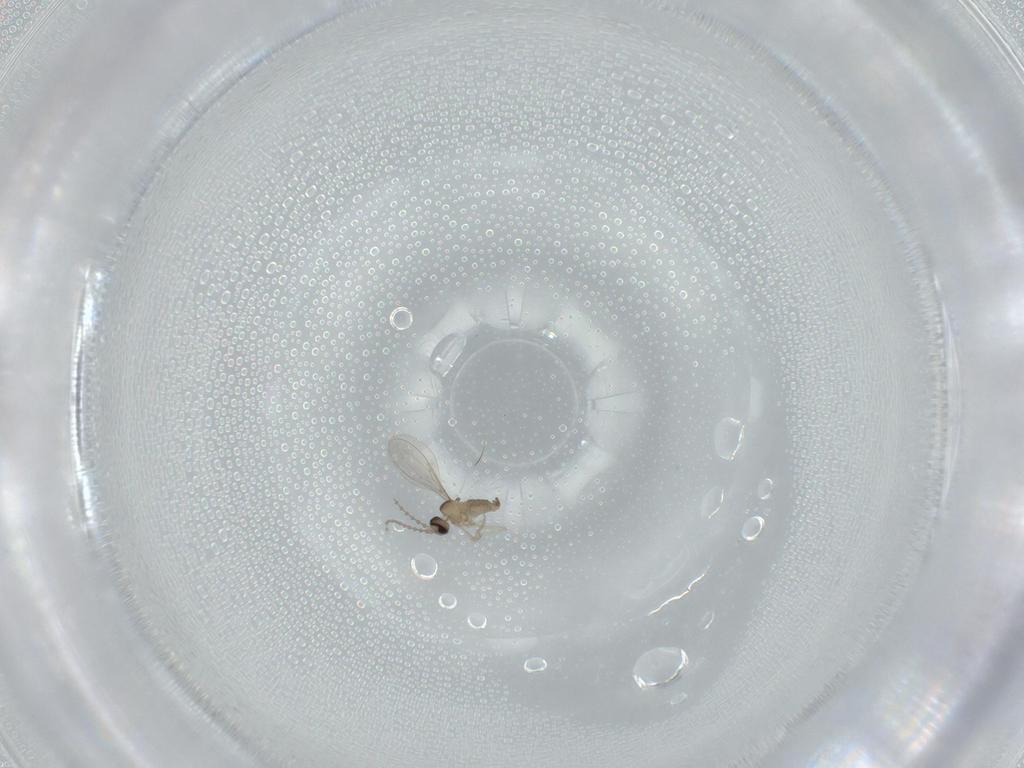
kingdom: Animalia
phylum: Arthropoda
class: Insecta
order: Diptera
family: Cecidomyiidae
